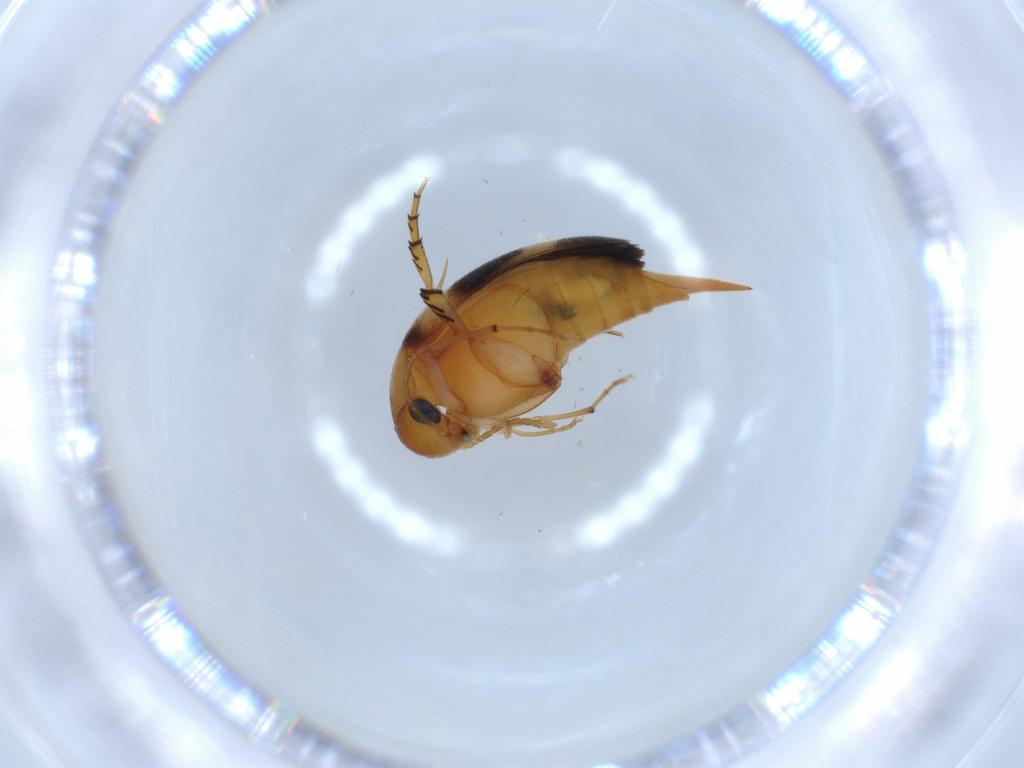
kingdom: Animalia
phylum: Arthropoda
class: Insecta
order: Coleoptera
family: Mordellidae
